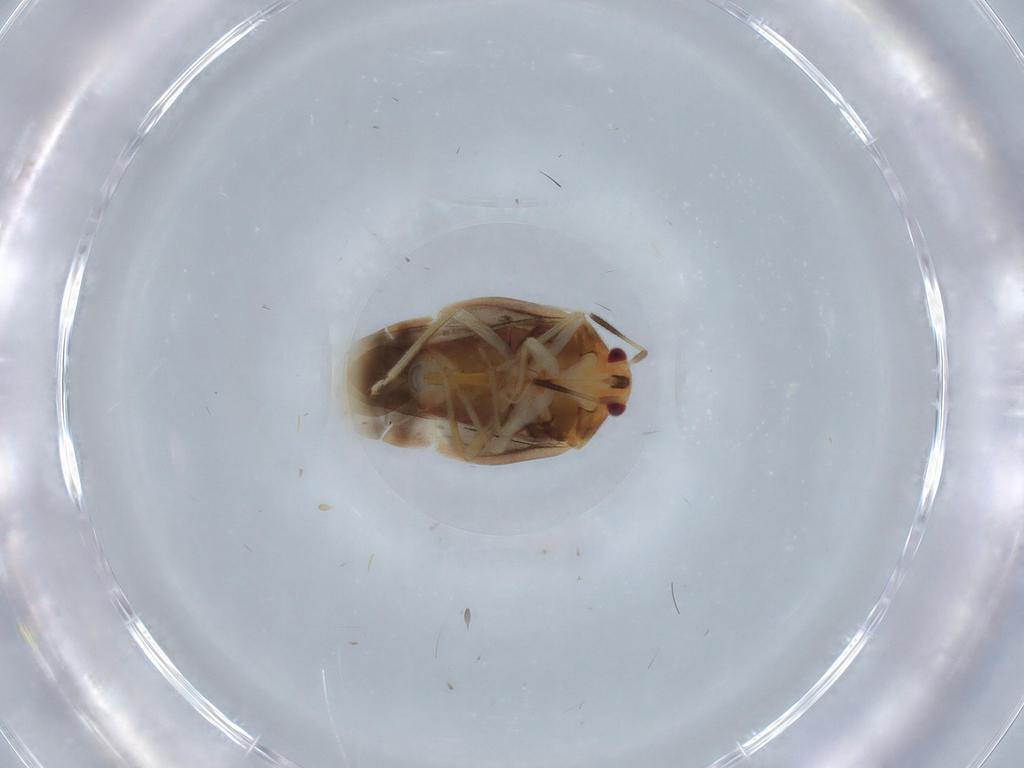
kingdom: Animalia
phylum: Arthropoda
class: Insecta
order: Hemiptera
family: Miridae
